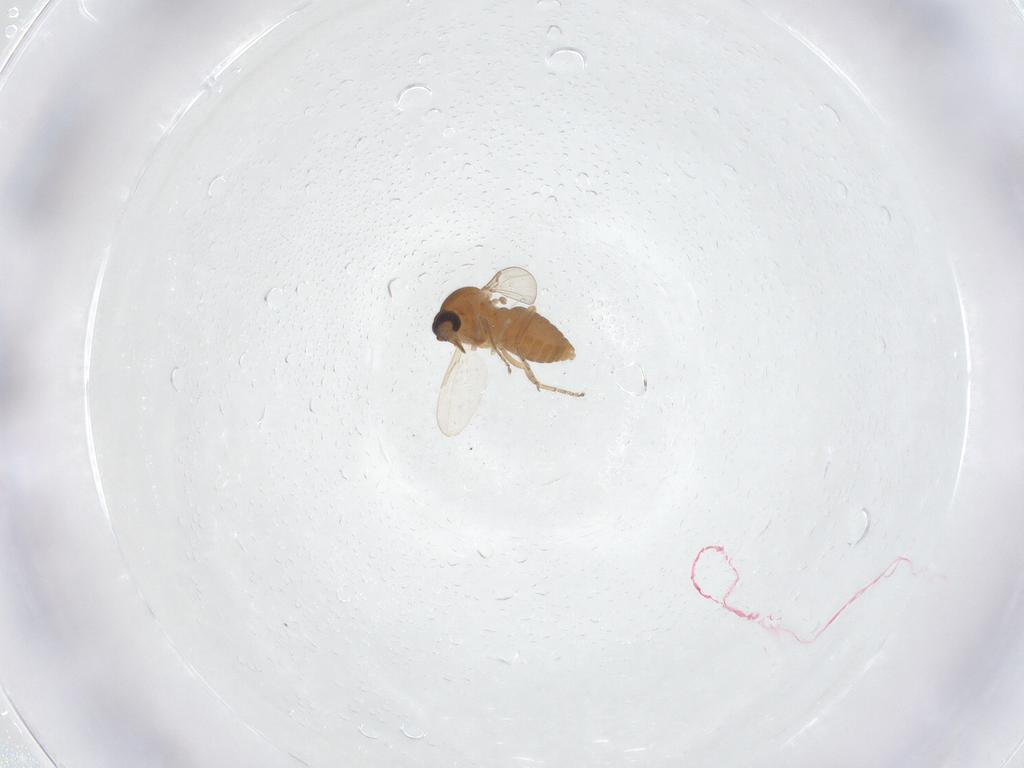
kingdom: Animalia
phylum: Arthropoda
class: Insecta
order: Diptera
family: Ceratopogonidae
